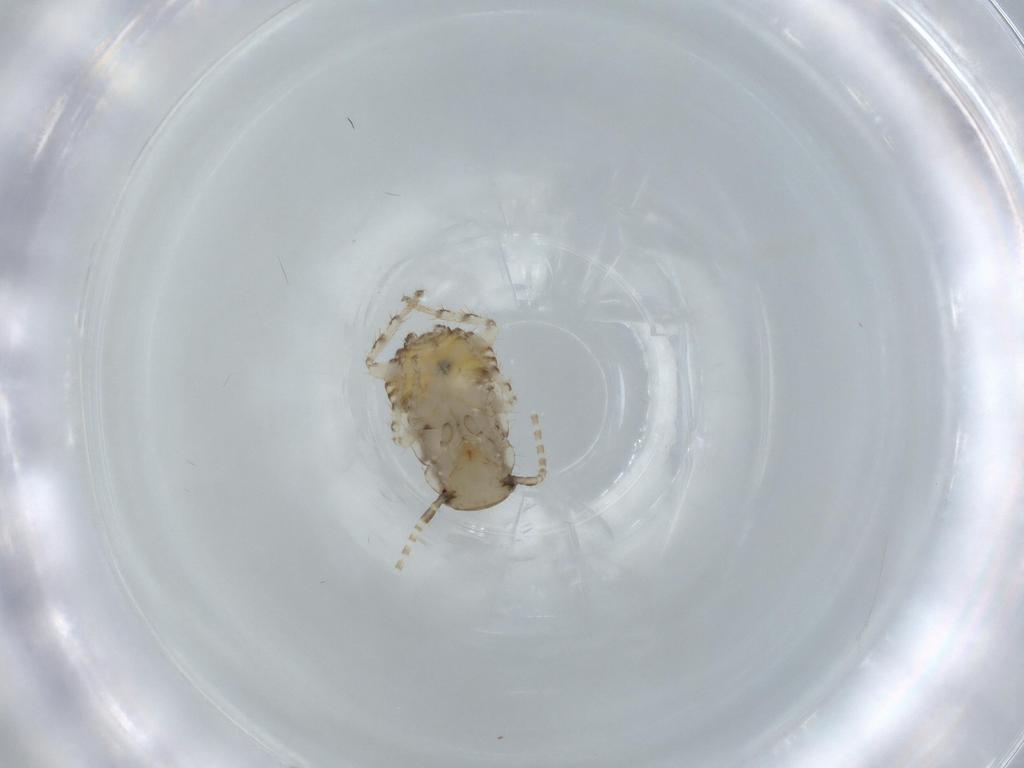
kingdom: Animalia
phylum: Arthropoda
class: Insecta
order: Blattodea
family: Ectobiidae
